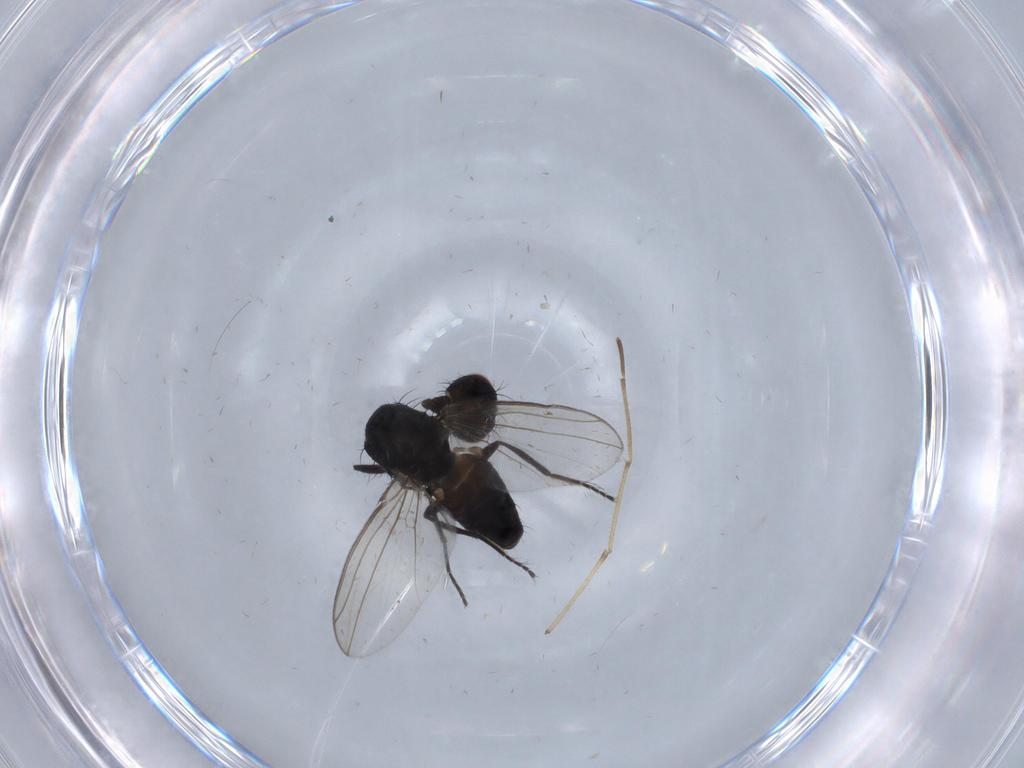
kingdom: Animalia
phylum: Arthropoda
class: Insecta
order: Diptera
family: Carnidae
